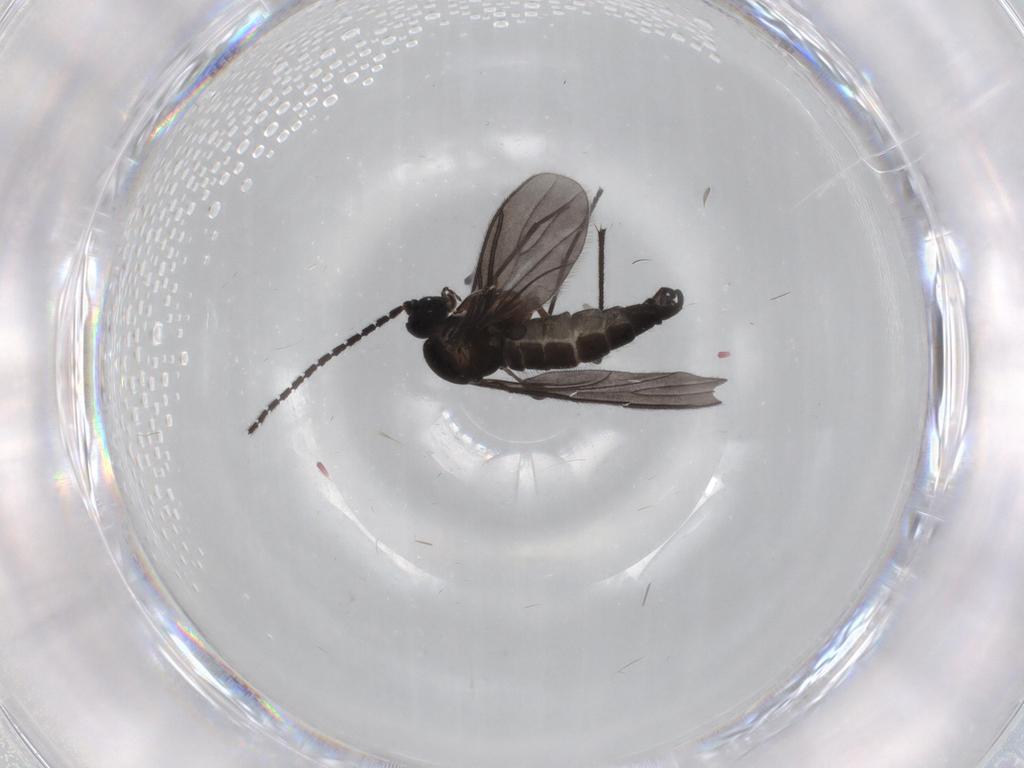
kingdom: Animalia
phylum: Arthropoda
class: Insecta
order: Diptera
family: Sciaridae
